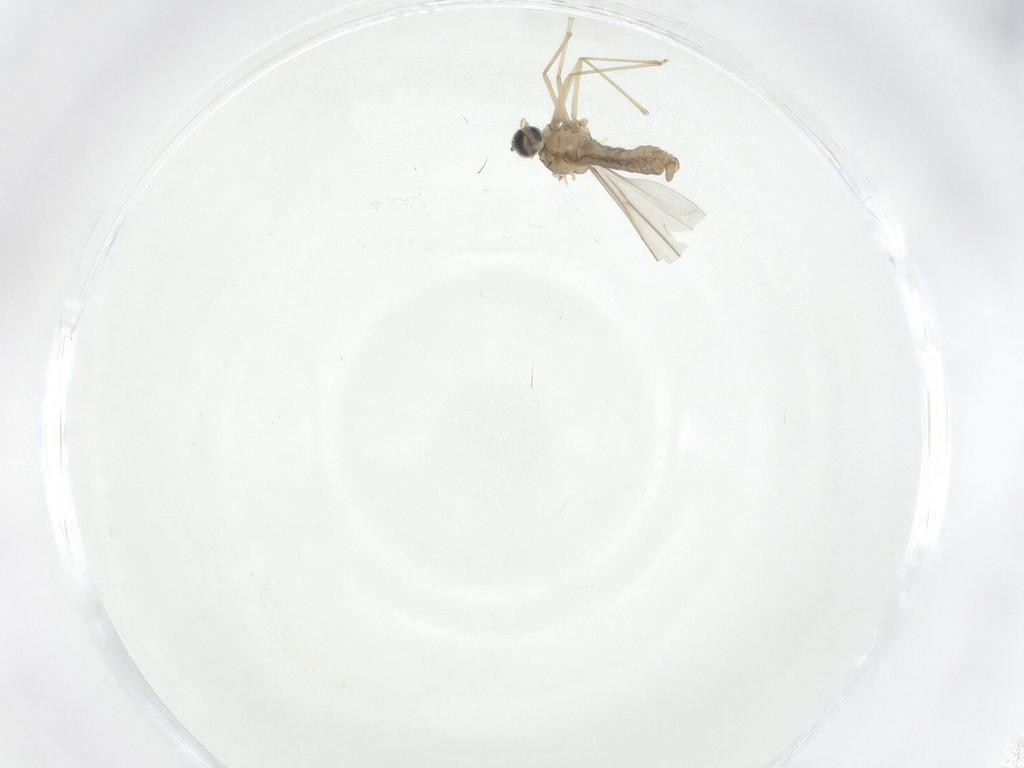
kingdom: Animalia
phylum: Arthropoda
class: Insecta
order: Diptera
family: Cecidomyiidae
